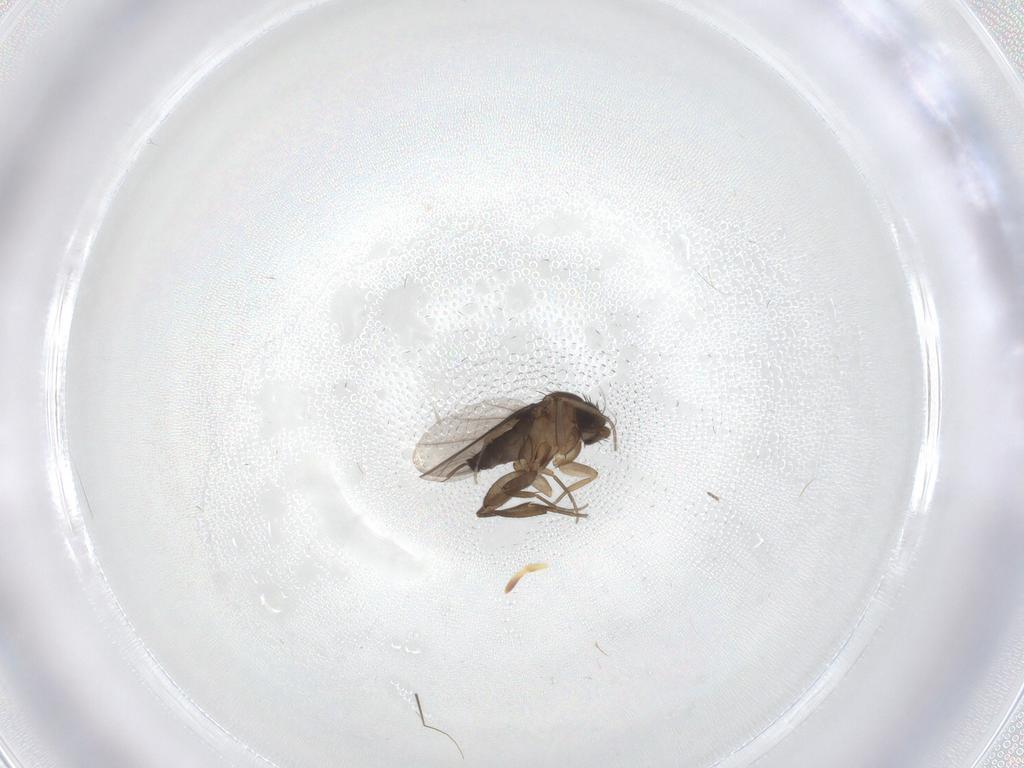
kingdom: Animalia
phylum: Arthropoda
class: Insecta
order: Diptera
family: Phoridae
